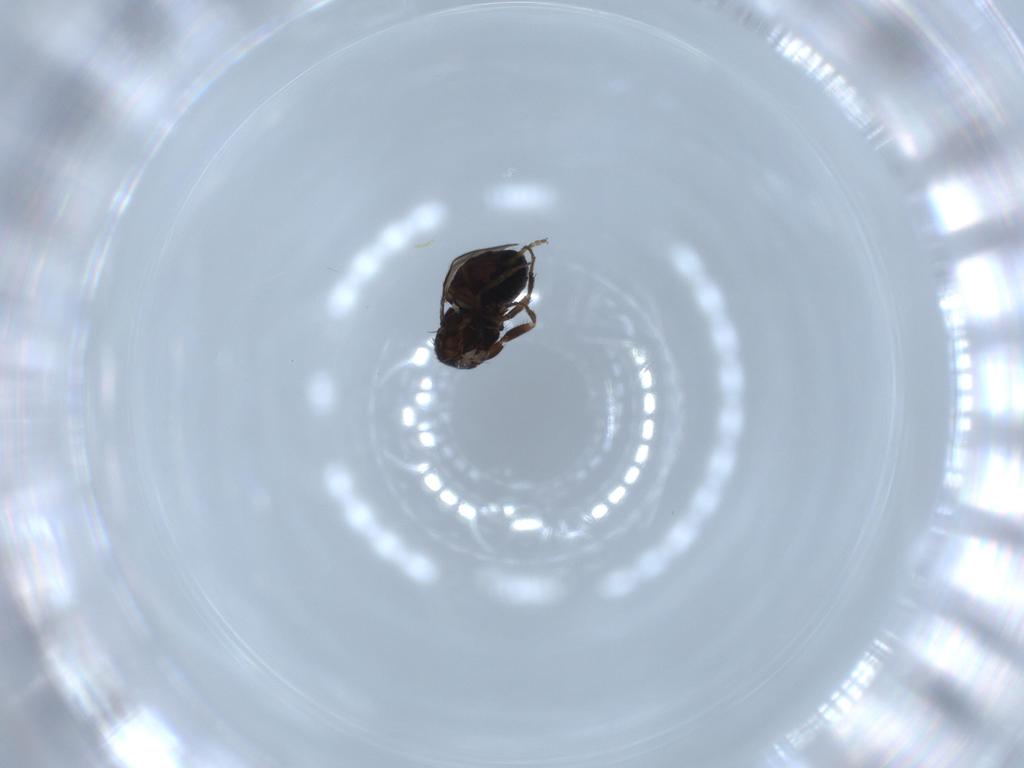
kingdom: Animalia
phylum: Arthropoda
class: Insecta
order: Diptera
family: Sphaeroceridae
